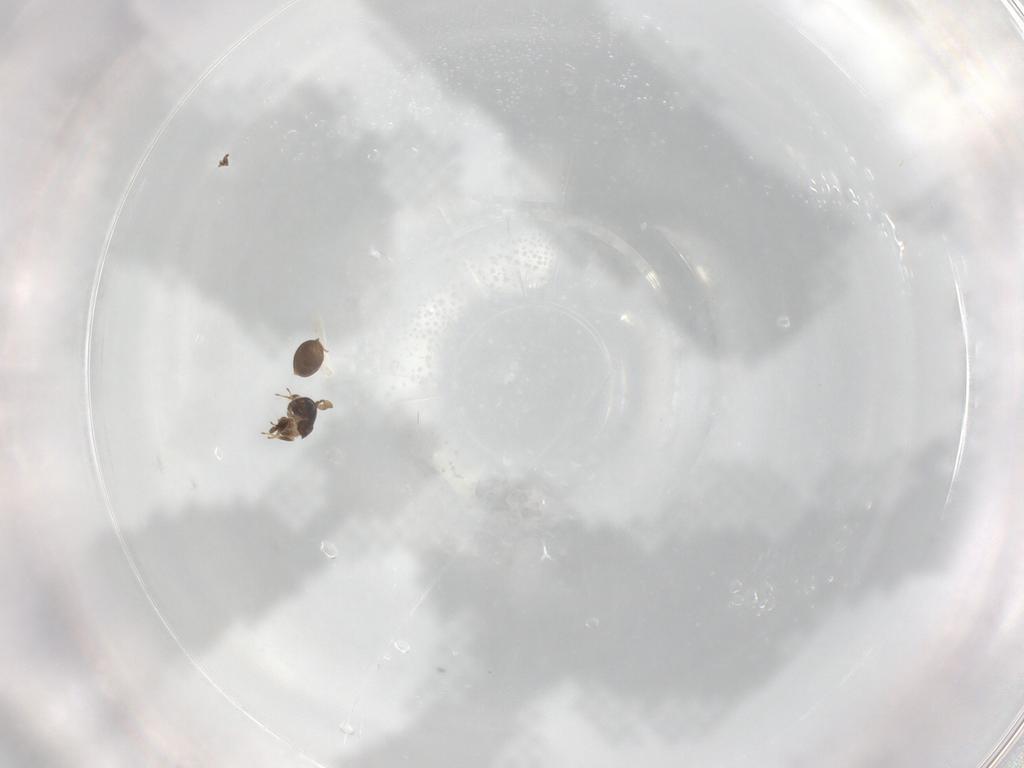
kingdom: Animalia
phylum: Arthropoda
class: Insecta
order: Hymenoptera
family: Scelionidae
